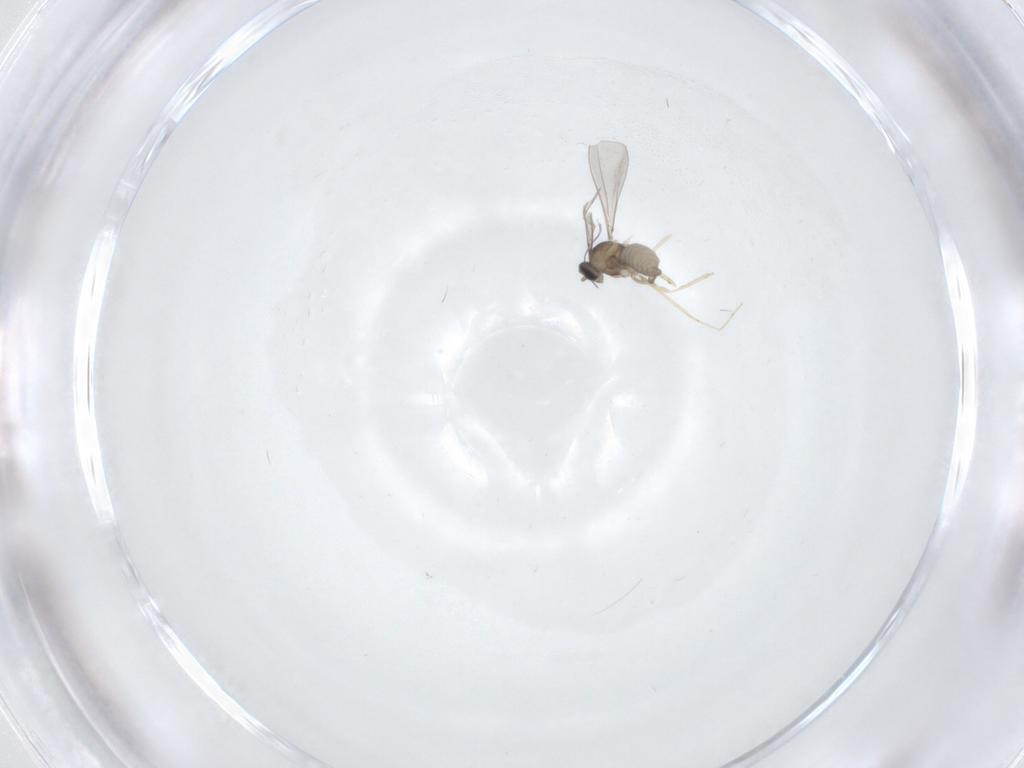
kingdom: Animalia
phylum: Arthropoda
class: Insecta
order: Diptera
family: Cecidomyiidae
